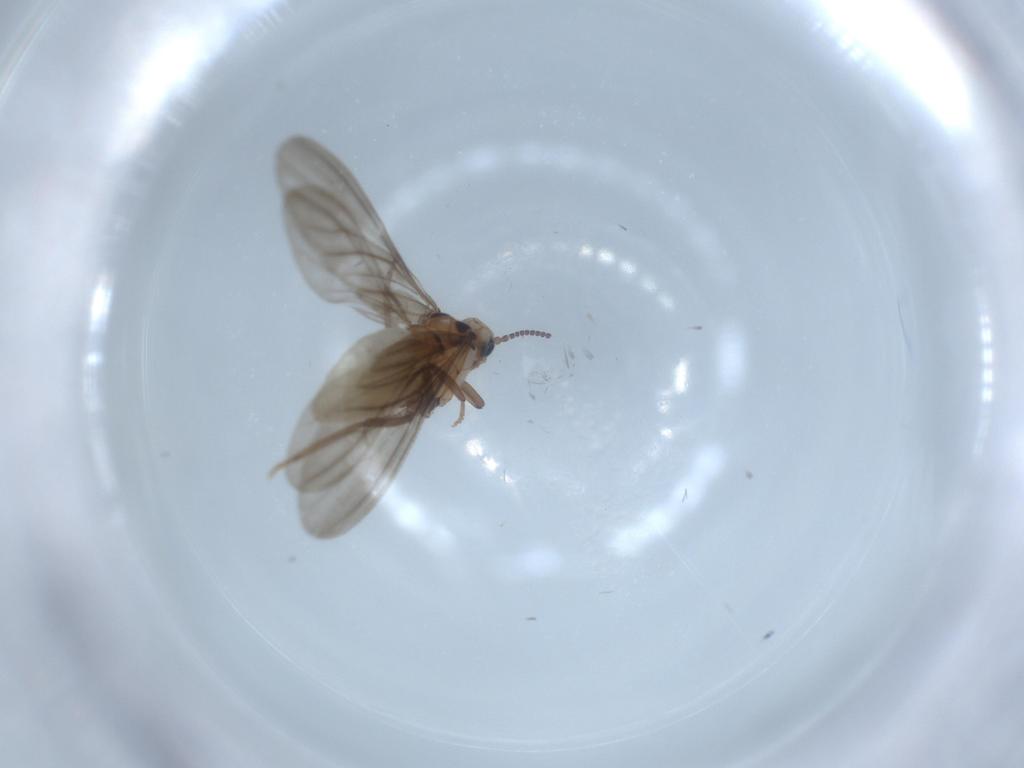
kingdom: Animalia
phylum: Arthropoda
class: Insecta
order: Neuroptera
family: Coniopterygidae
